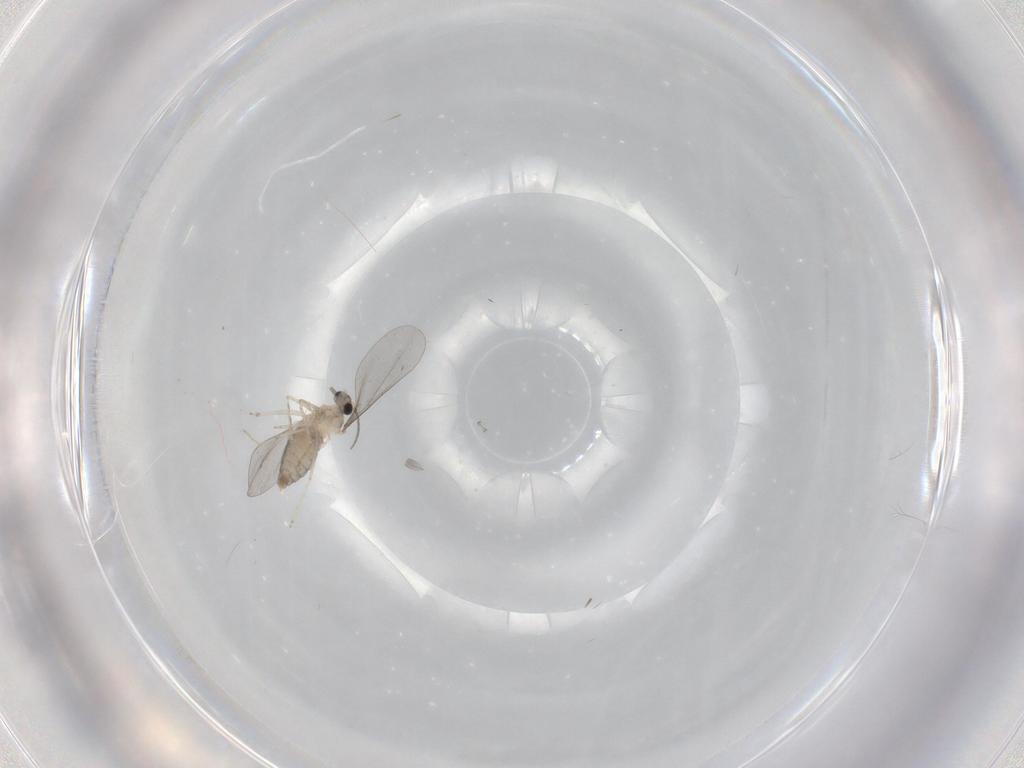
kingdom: Animalia
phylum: Arthropoda
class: Insecta
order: Diptera
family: Cecidomyiidae
